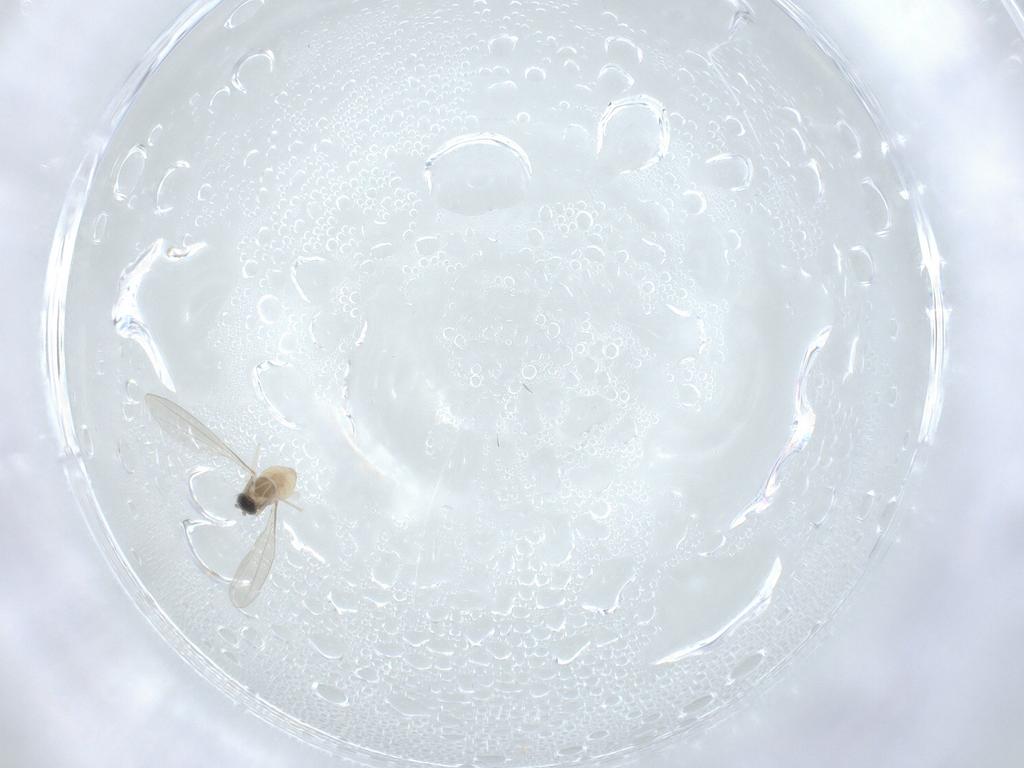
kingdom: Animalia
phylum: Arthropoda
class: Insecta
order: Diptera
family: Cecidomyiidae
